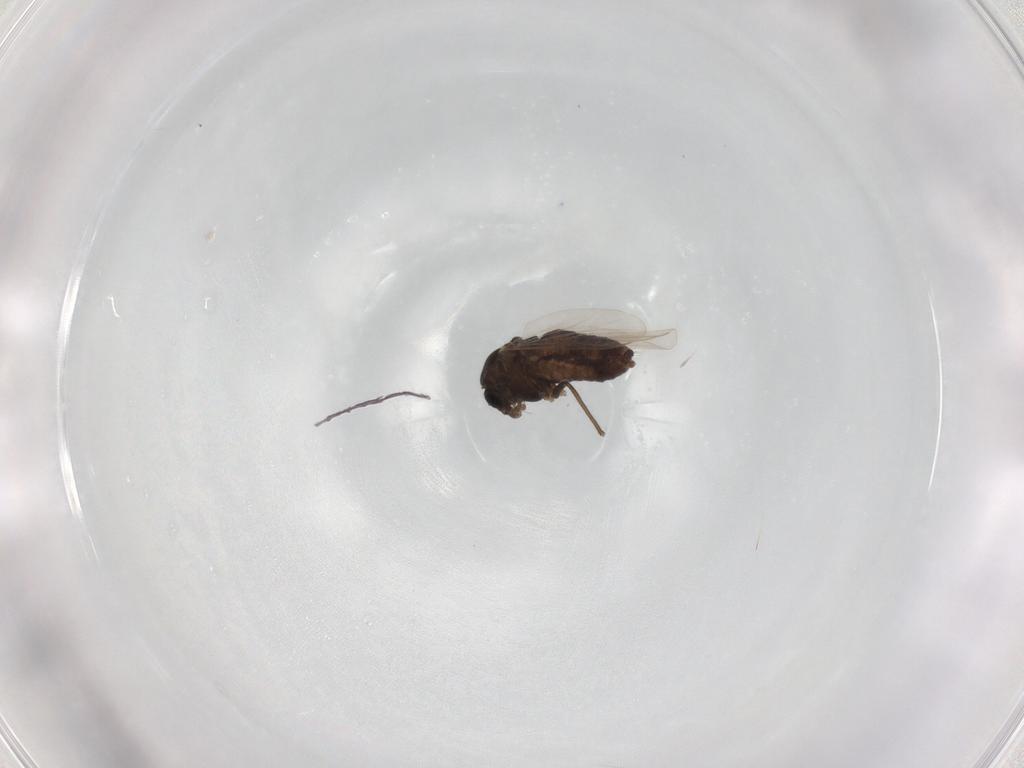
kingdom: Animalia
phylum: Arthropoda
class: Insecta
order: Diptera
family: Chironomidae
